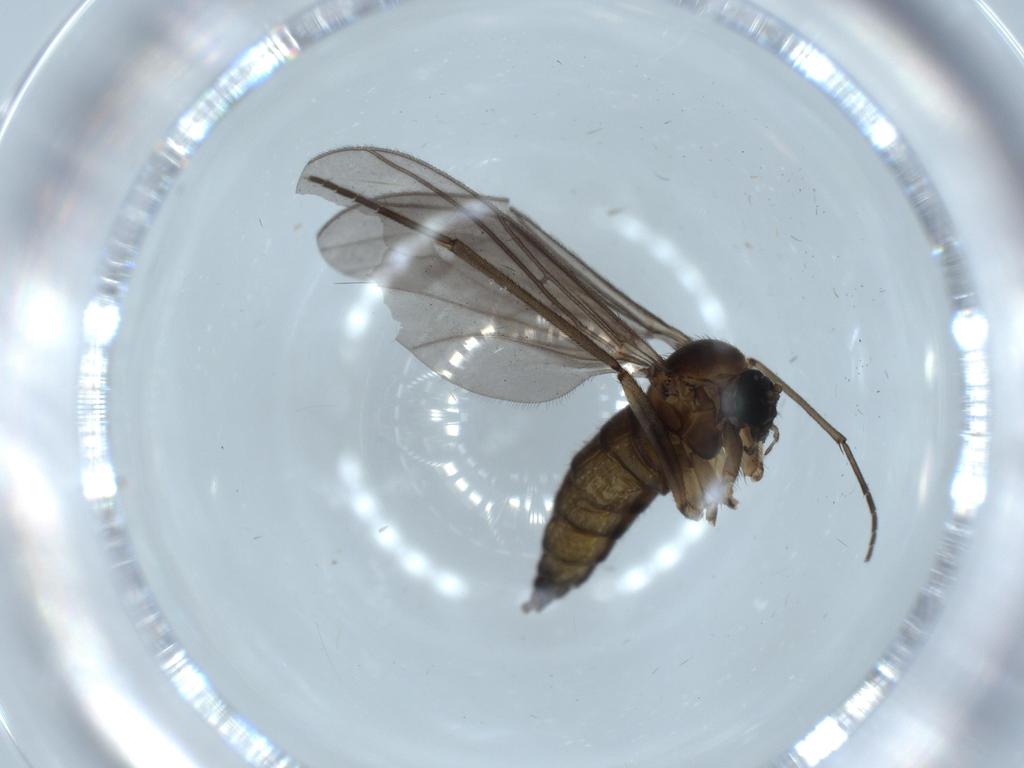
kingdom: Animalia
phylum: Arthropoda
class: Insecta
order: Diptera
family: Sciaridae
